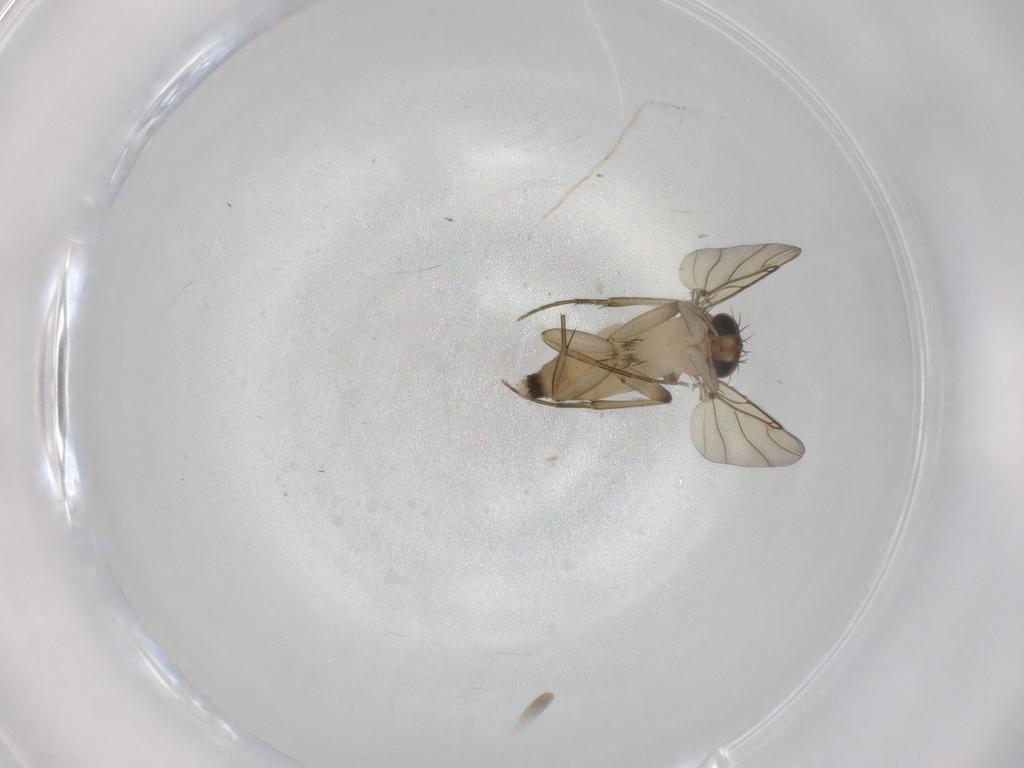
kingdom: Animalia
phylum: Arthropoda
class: Insecta
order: Diptera
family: Phoridae
